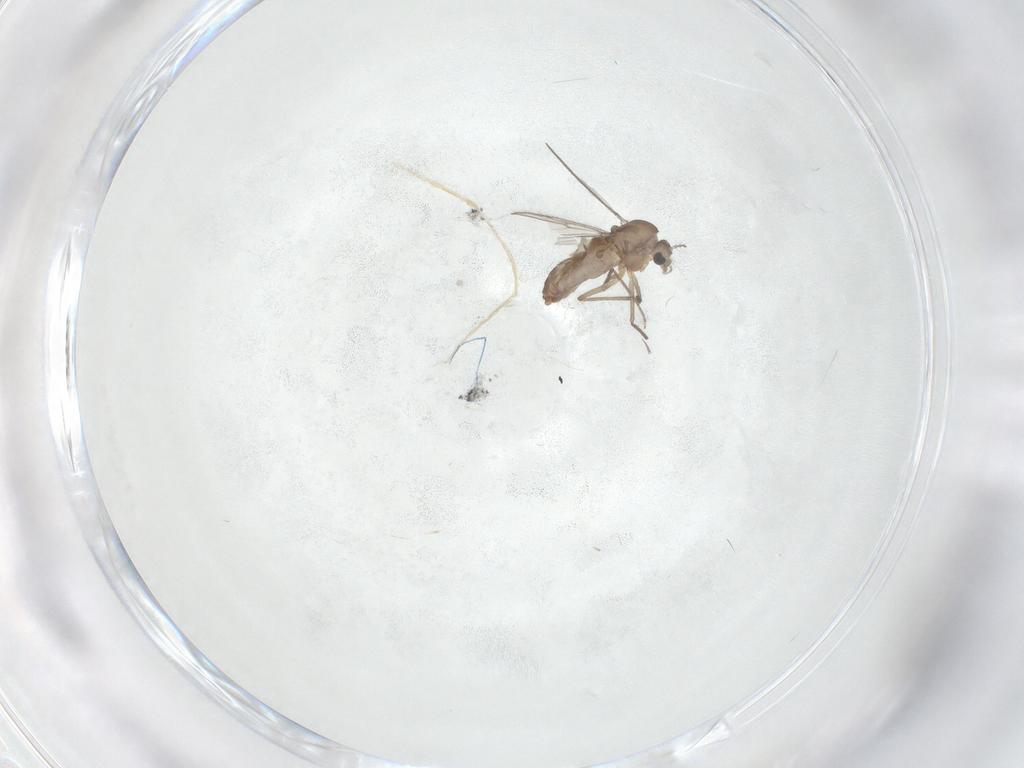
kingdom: Animalia
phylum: Arthropoda
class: Insecta
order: Diptera
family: Chironomidae
